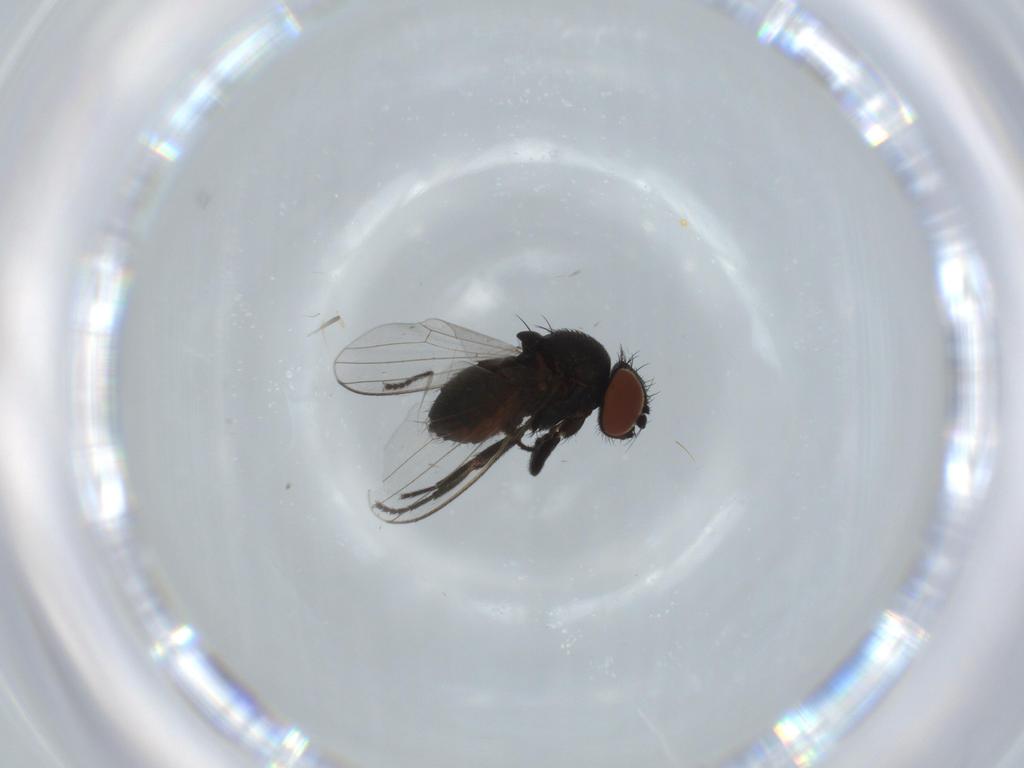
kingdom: Animalia
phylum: Arthropoda
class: Insecta
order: Diptera
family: Milichiidae
